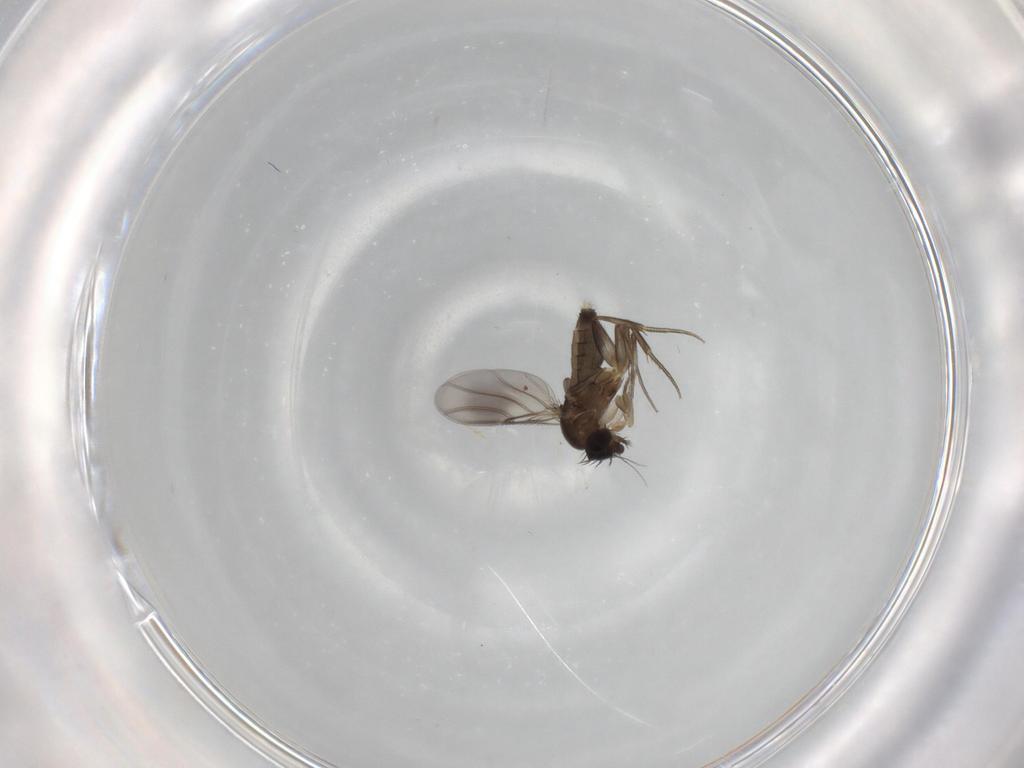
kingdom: Animalia
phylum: Arthropoda
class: Insecta
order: Diptera
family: Phoridae
